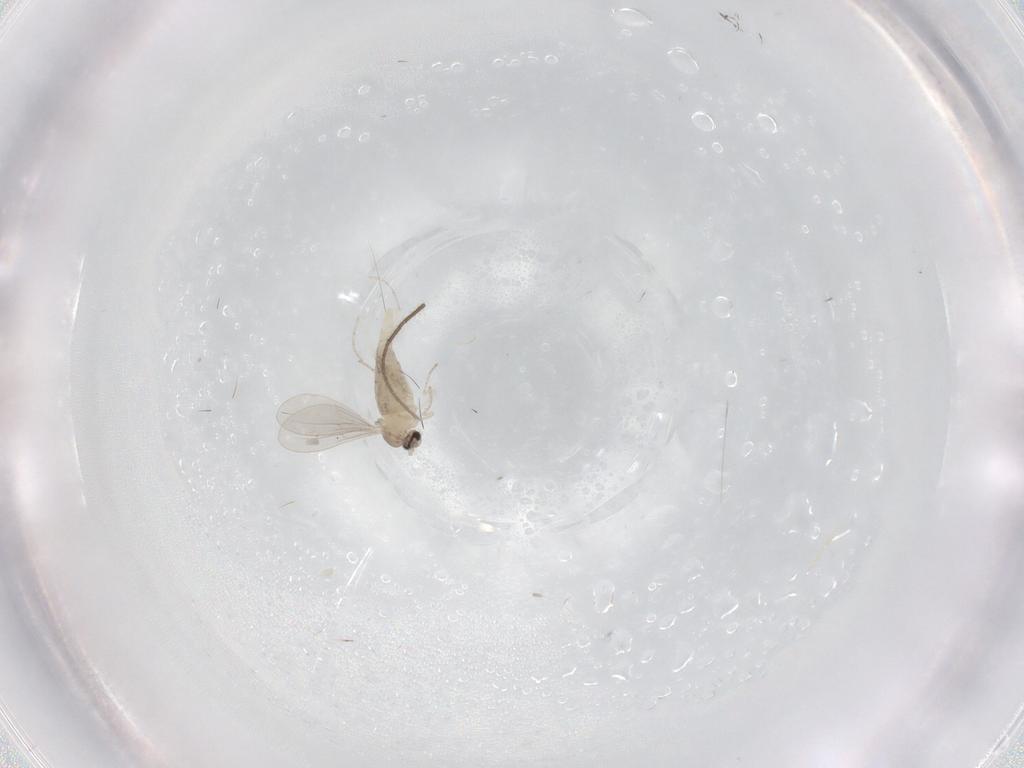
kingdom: Animalia
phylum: Arthropoda
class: Insecta
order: Diptera
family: Cecidomyiidae
